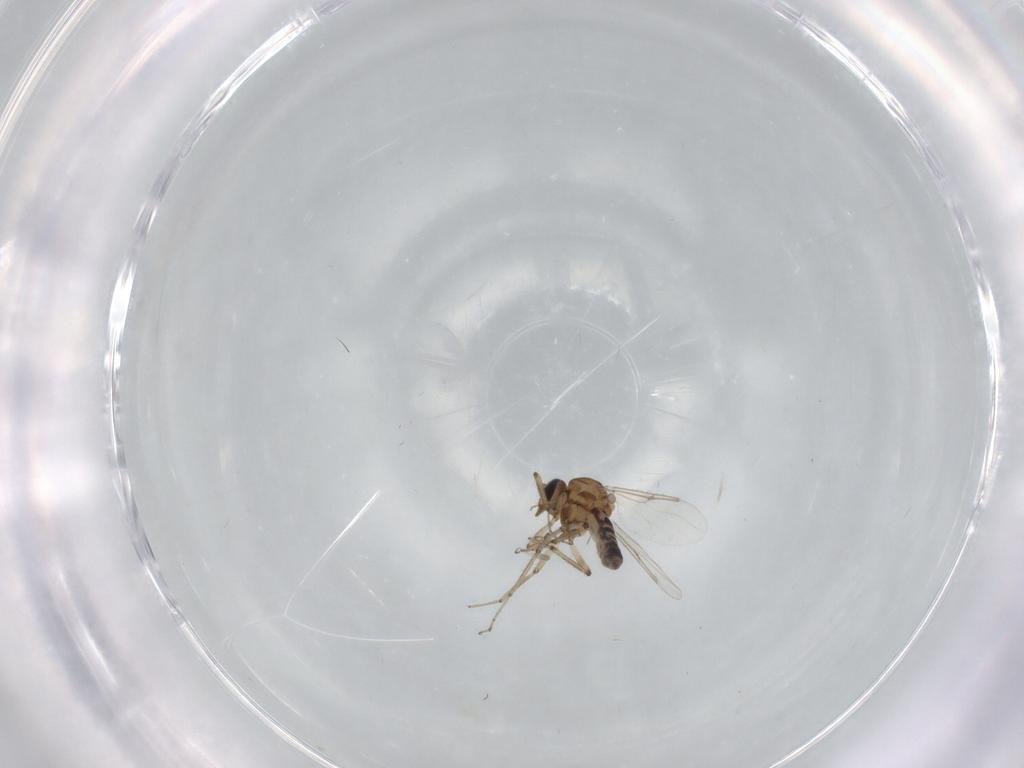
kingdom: Animalia
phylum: Arthropoda
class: Insecta
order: Diptera
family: Ceratopogonidae
